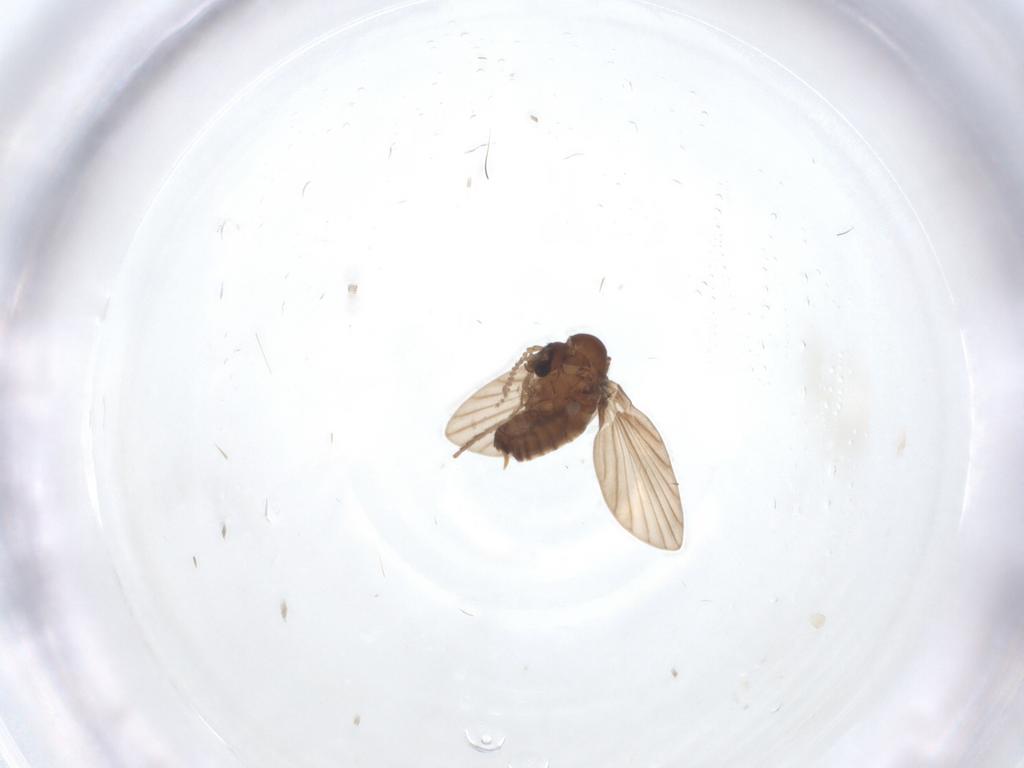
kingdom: Animalia
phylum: Arthropoda
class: Insecta
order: Diptera
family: Psychodidae
